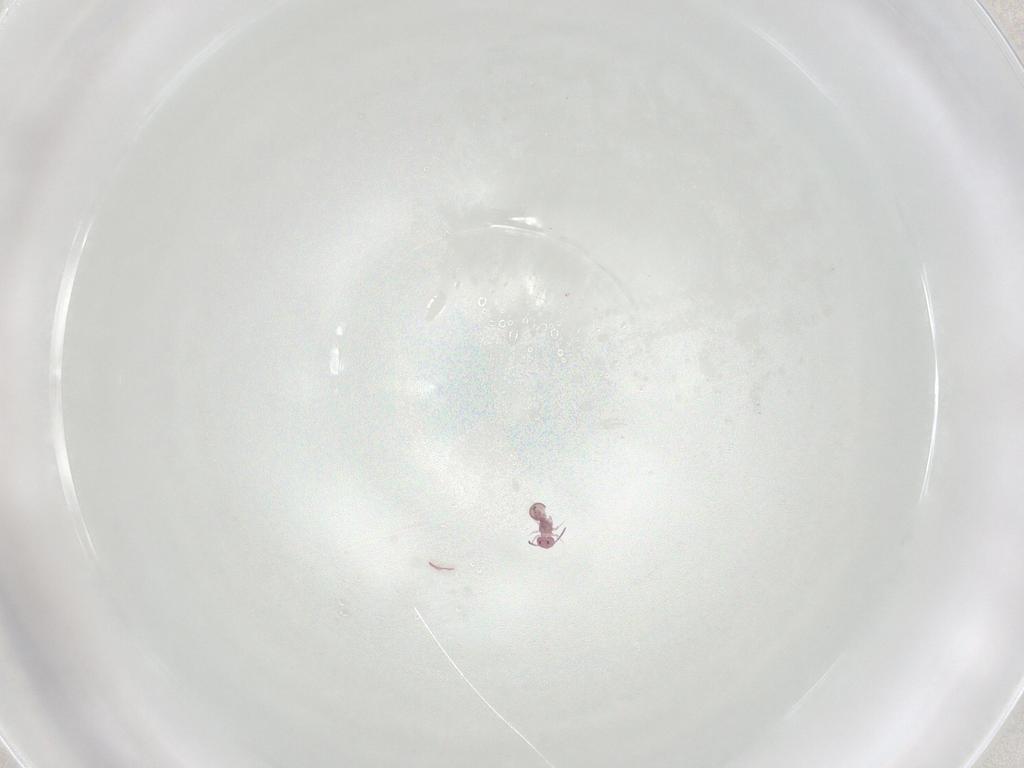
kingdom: Animalia
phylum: Arthropoda
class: Collembola
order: Symphypleona
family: Sminthurididae
